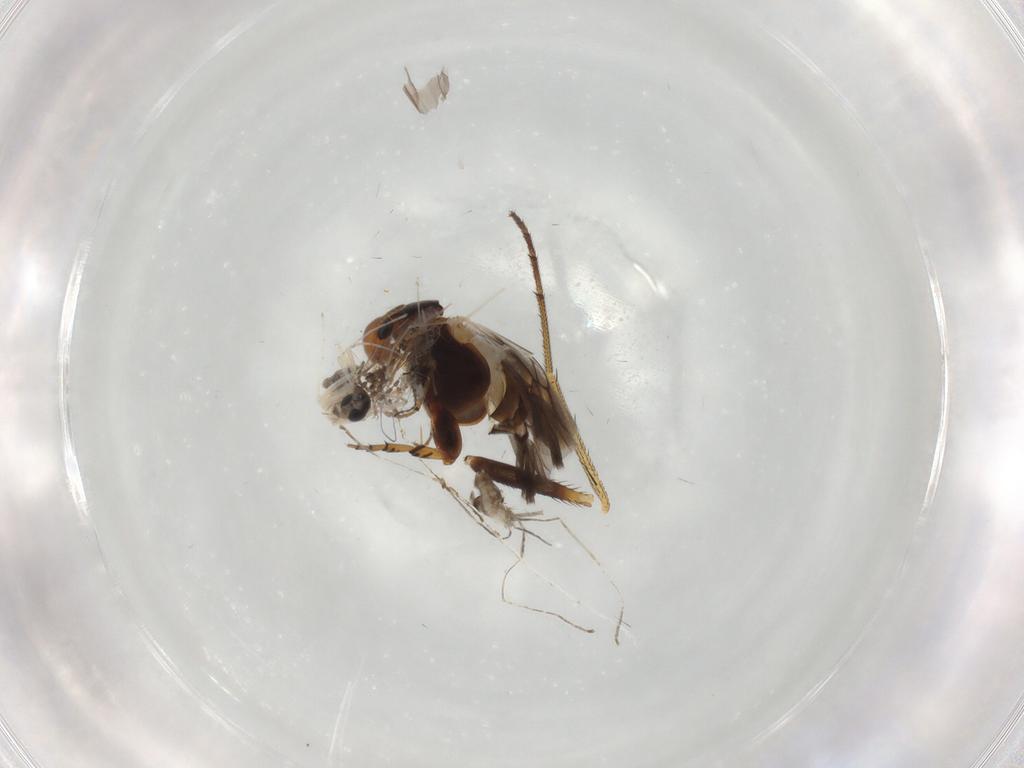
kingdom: Animalia
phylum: Arthropoda
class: Insecta
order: Diptera
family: Cecidomyiidae
